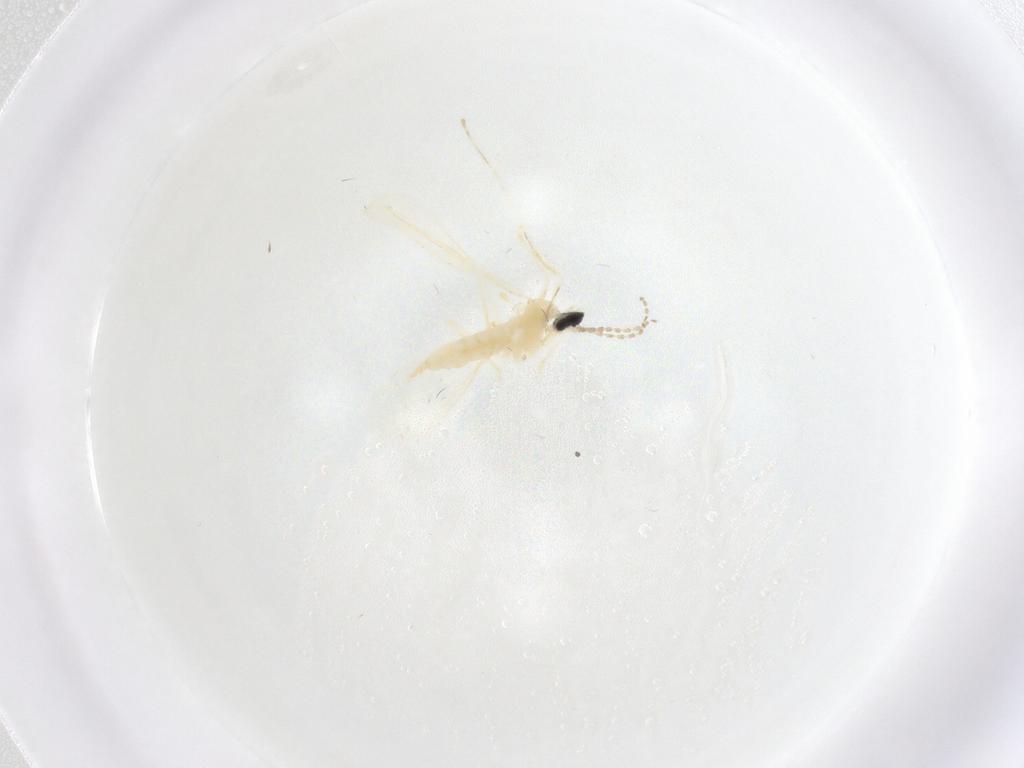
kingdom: Animalia
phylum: Arthropoda
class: Insecta
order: Diptera
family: Cecidomyiidae
